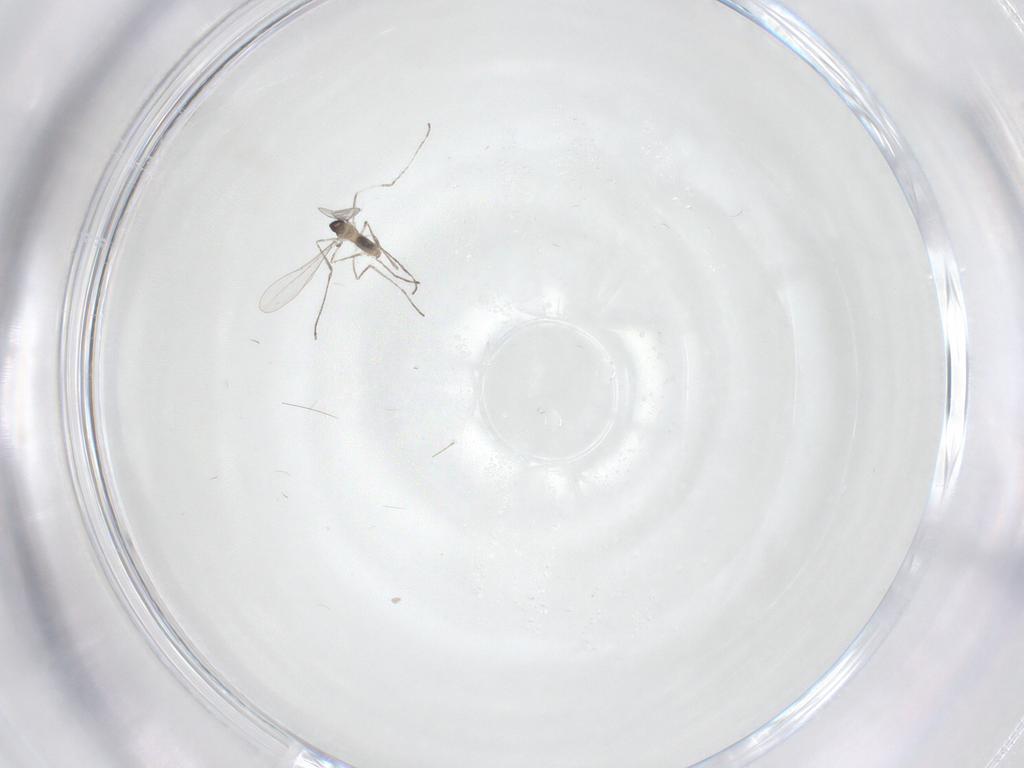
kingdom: Animalia
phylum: Arthropoda
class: Insecta
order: Diptera
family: Cecidomyiidae
